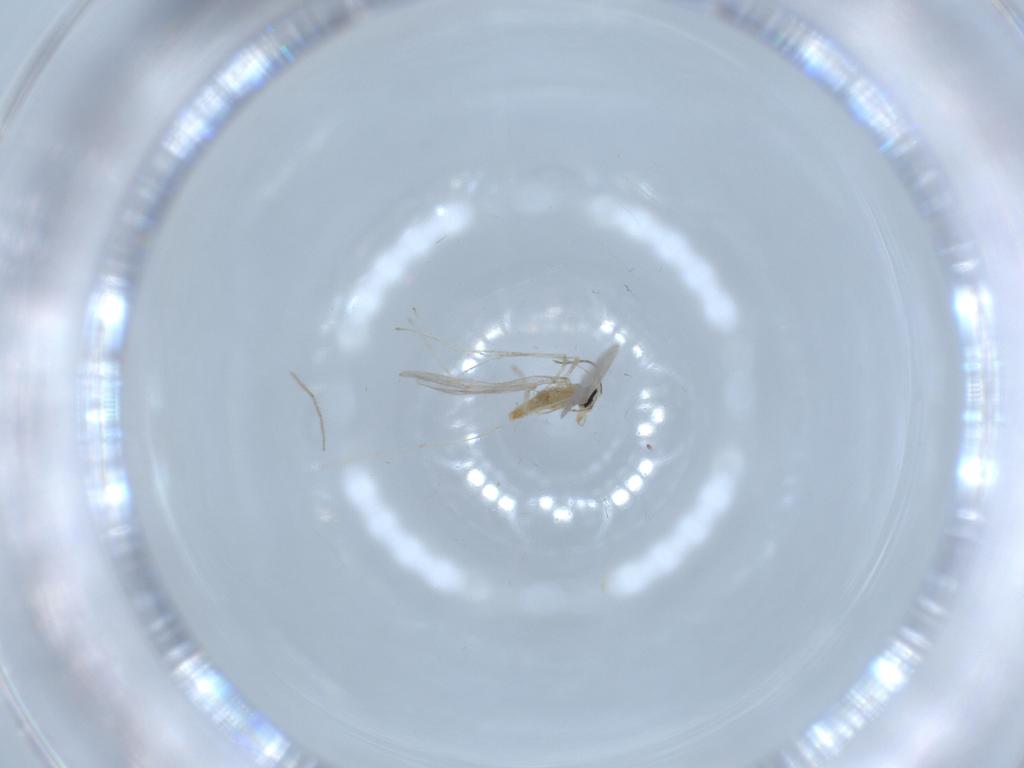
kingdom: Animalia
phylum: Arthropoda
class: Insecta
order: Diptera
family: Cecidomyiidae
